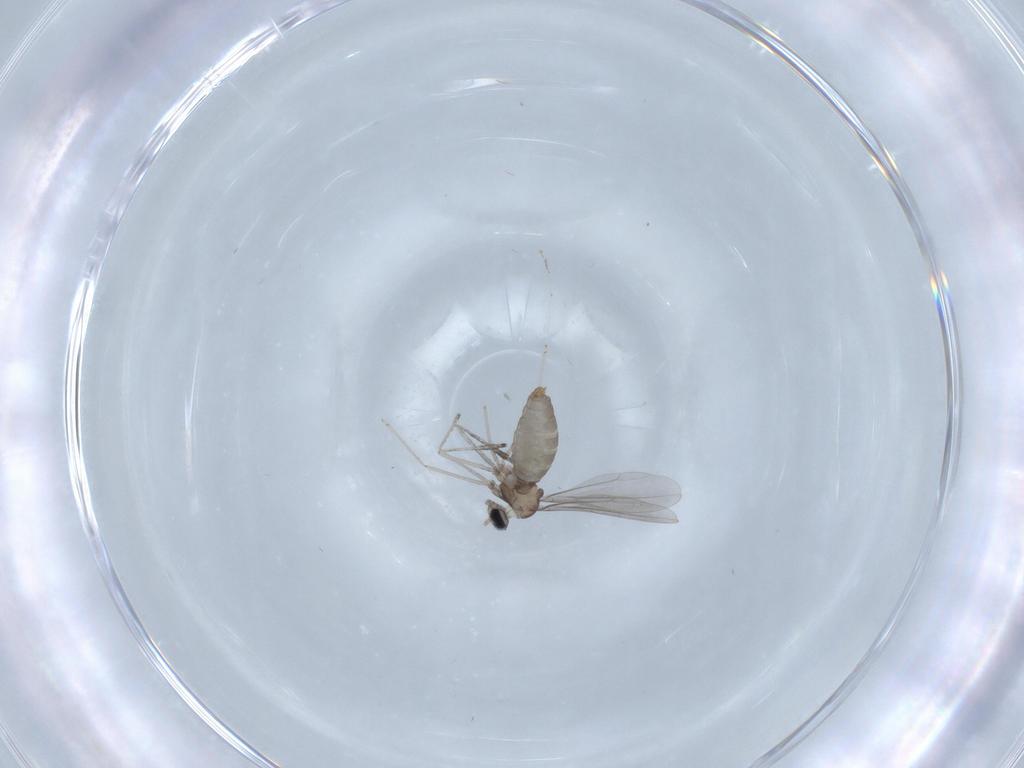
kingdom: Animalia
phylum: Arthropoda
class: Insecta
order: Diptera
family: Cecidomyiidae
